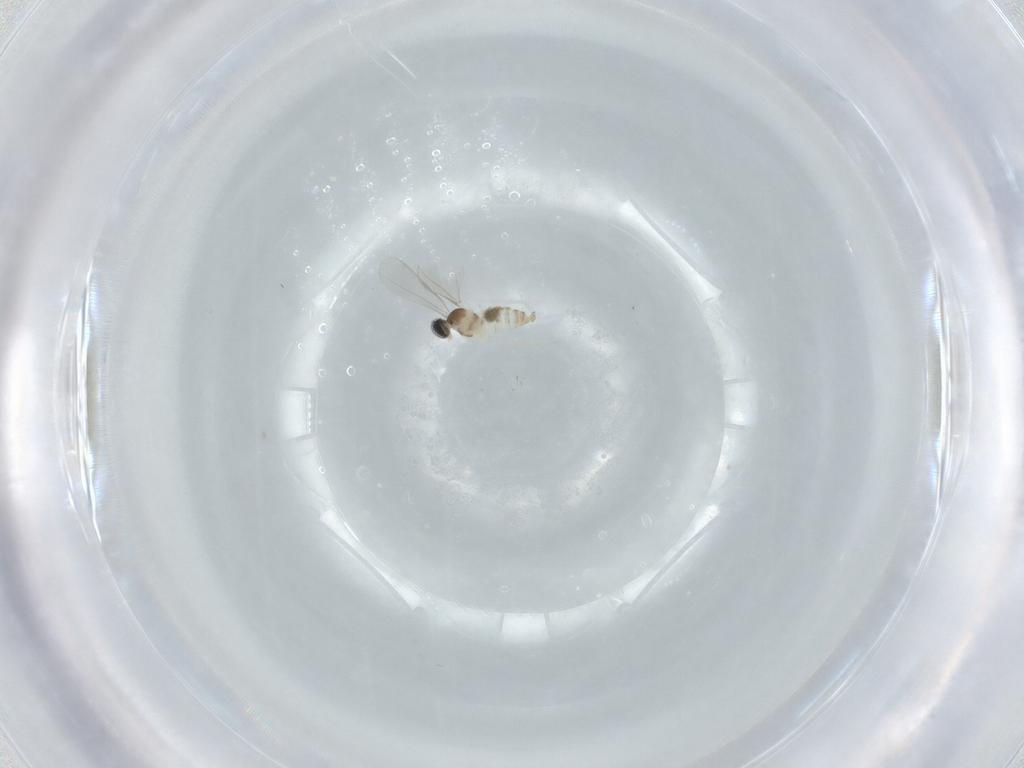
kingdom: Animalia
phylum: Arthropoda
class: Insecta
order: Diptera
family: Cecidomyiidae
